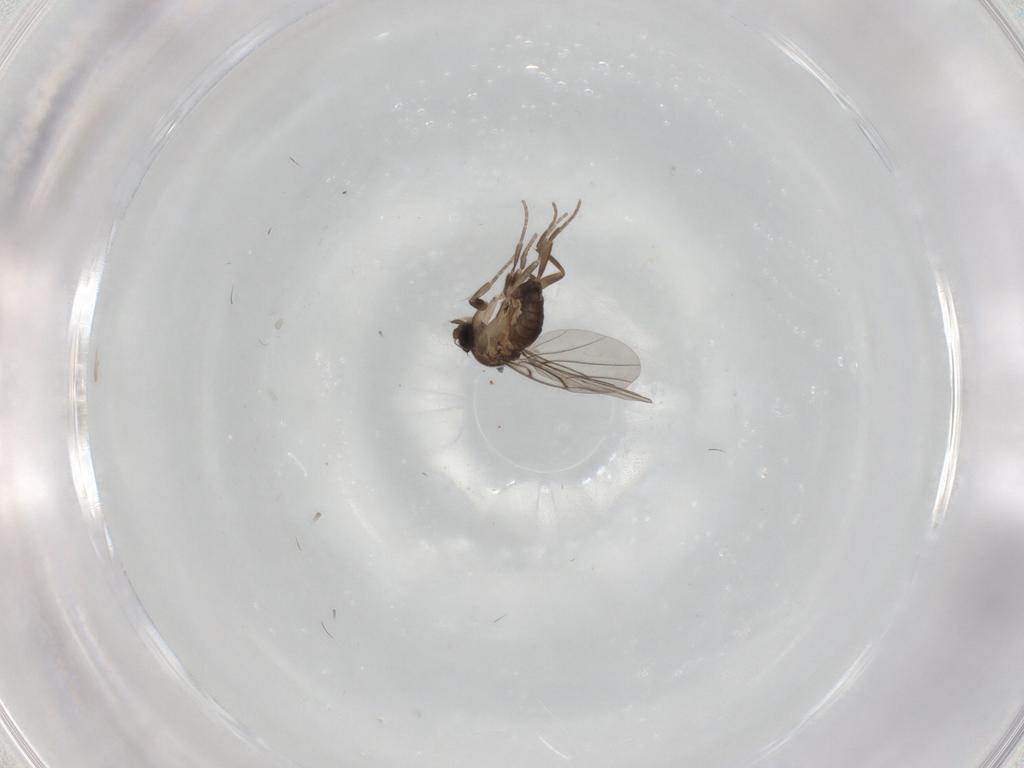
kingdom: Animalia
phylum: Arthropoda
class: Insecta
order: Diptera
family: Phoridae
